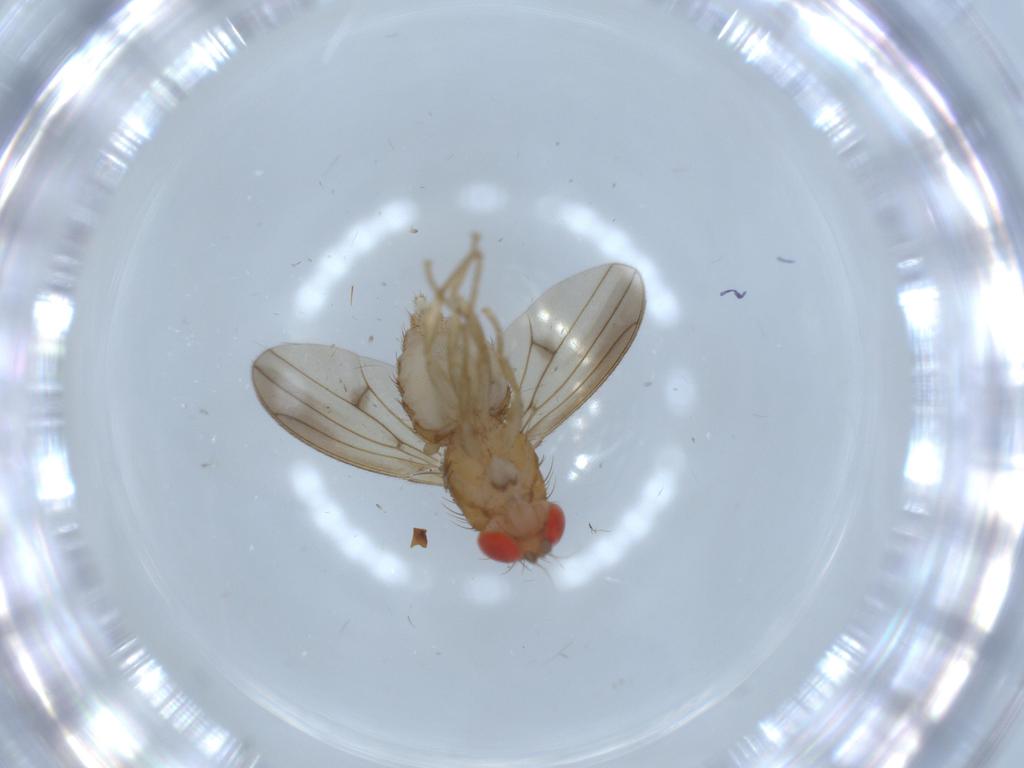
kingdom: Animalia
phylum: Arthropoda
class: Insecta
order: Diptera
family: Drosophilidae
